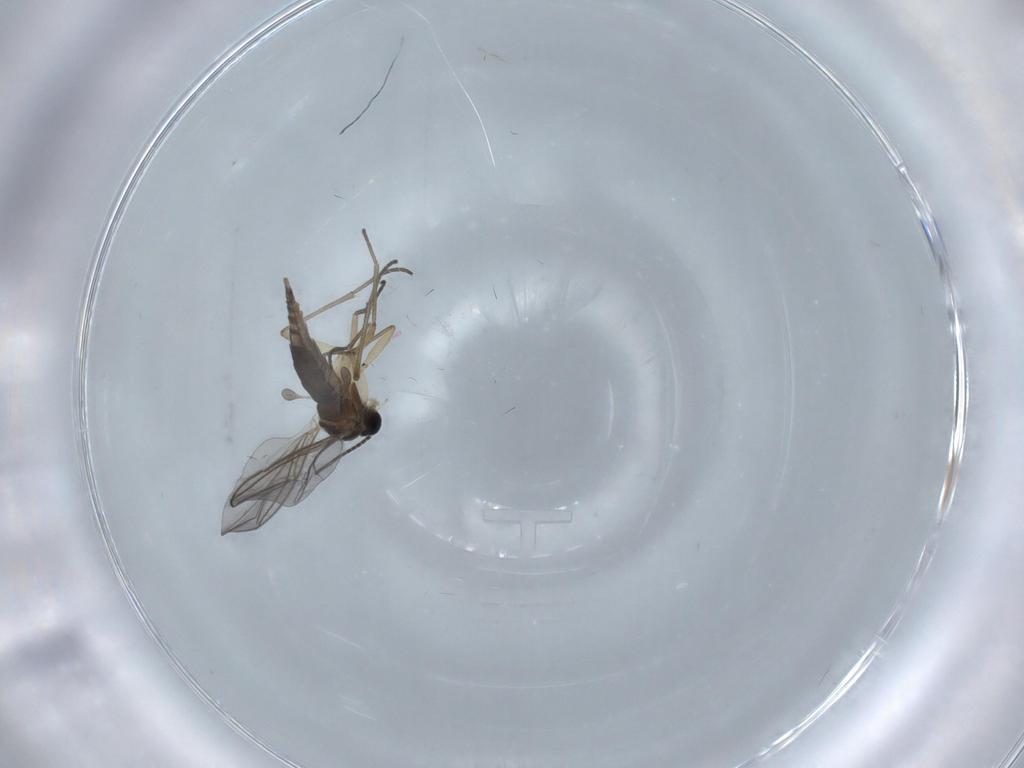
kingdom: Animalia
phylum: Arthropoda
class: Insecta
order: Diptera
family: Sciaridae
